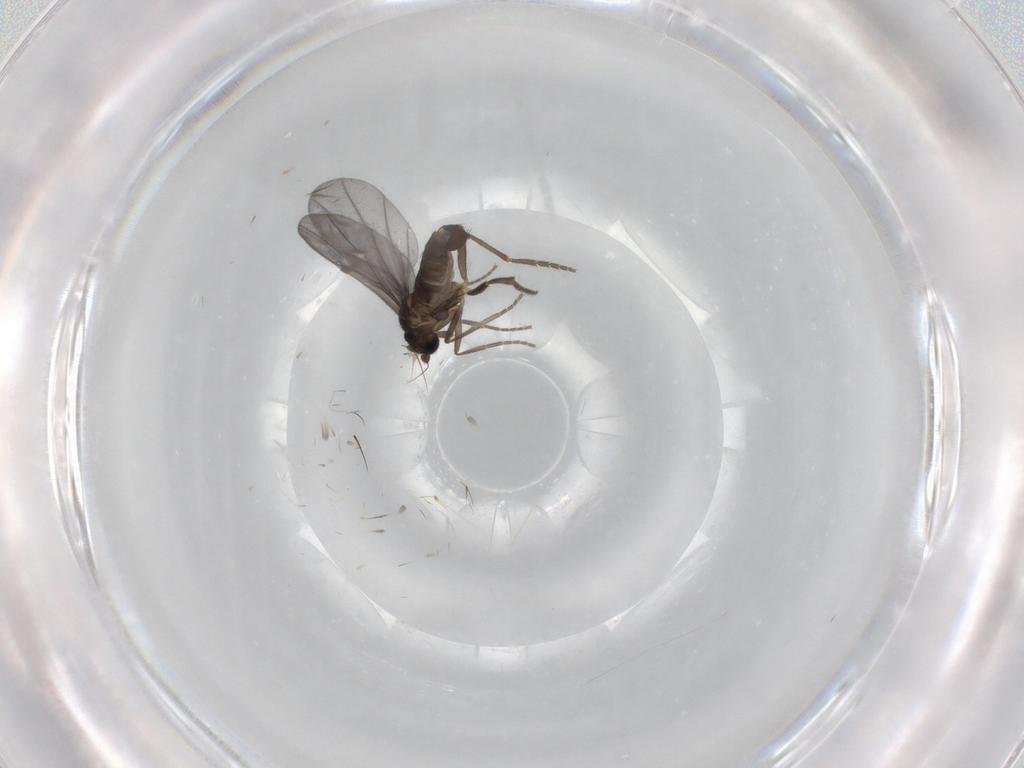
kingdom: Animalia
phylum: Arthropoda
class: Insecta
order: Diptera
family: Phoridae
